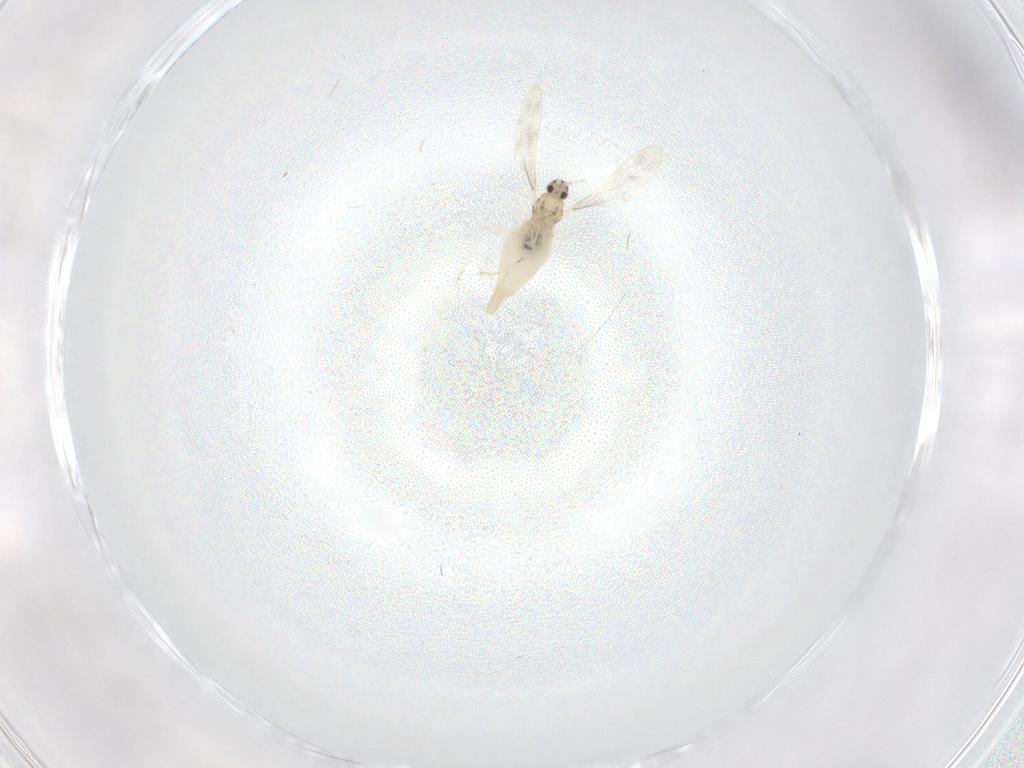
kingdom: Animalia
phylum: Arthropoda
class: Insecta
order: Diptera
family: Cecidomyiidae
